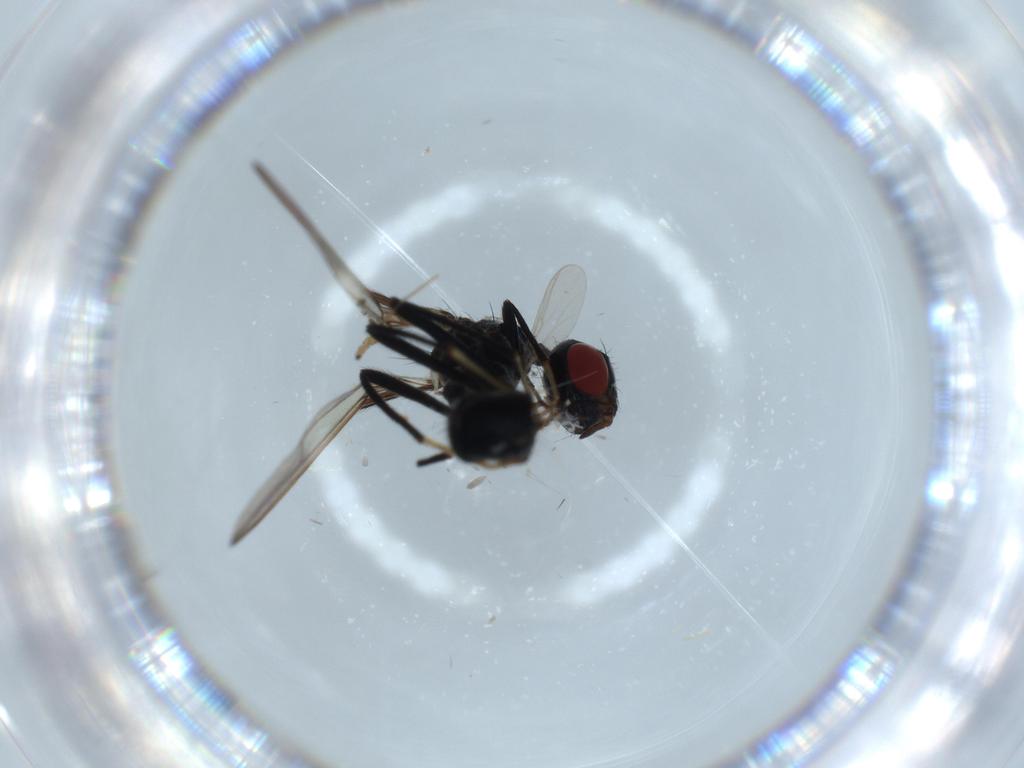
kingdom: Animalia
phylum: Arthropoda
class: Insecta
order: Diptera
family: Richardiidae
